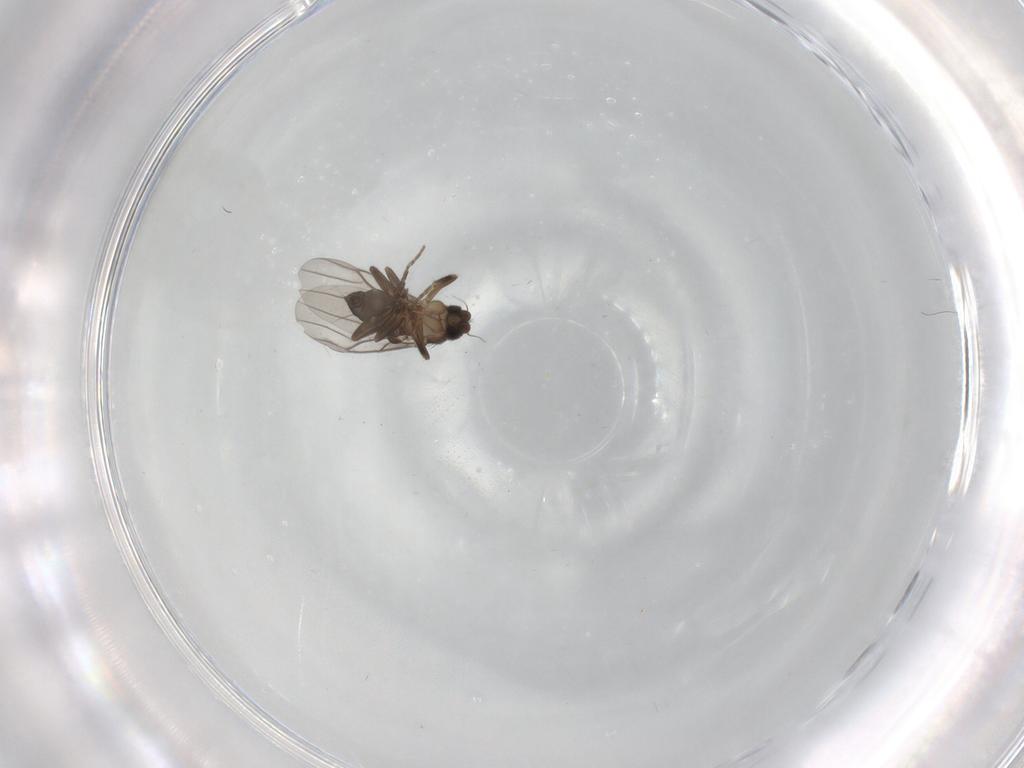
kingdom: Animalia
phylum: Arthropoda
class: Insecta
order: Diptera
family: Cecidomyiidae
